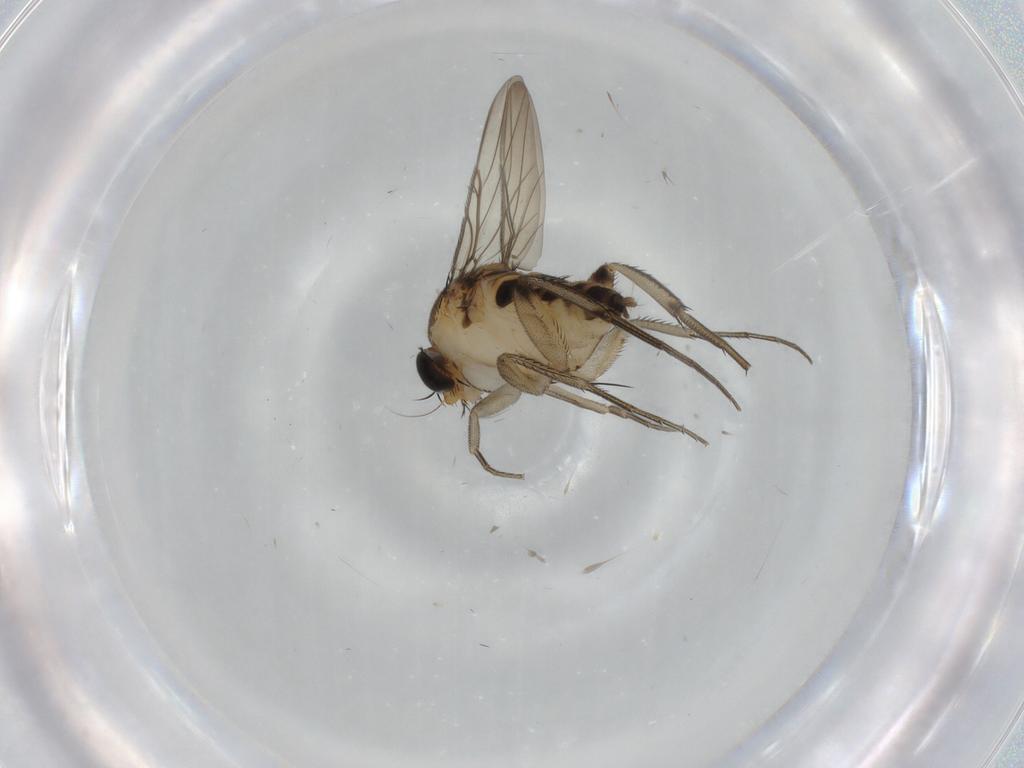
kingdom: Animalia
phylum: Arthropoda
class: Insecta
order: Diptera
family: Phoridae
